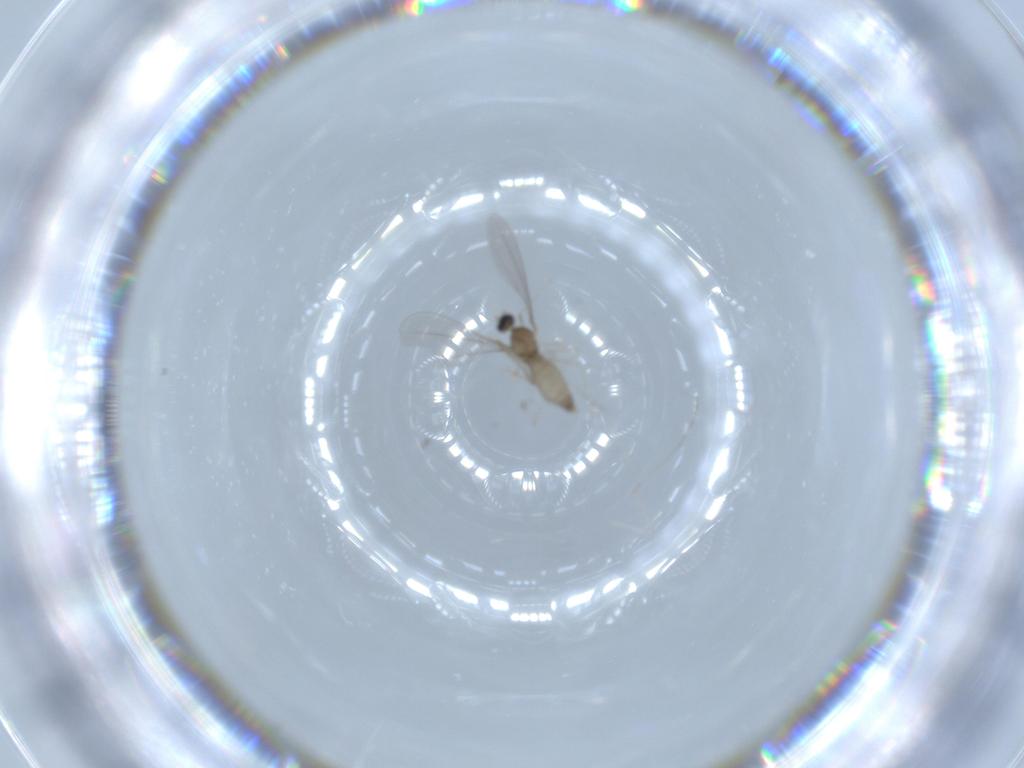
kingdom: Animalia
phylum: Arthropoda
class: Insecta
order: Diptera
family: Cecidomyiidae
